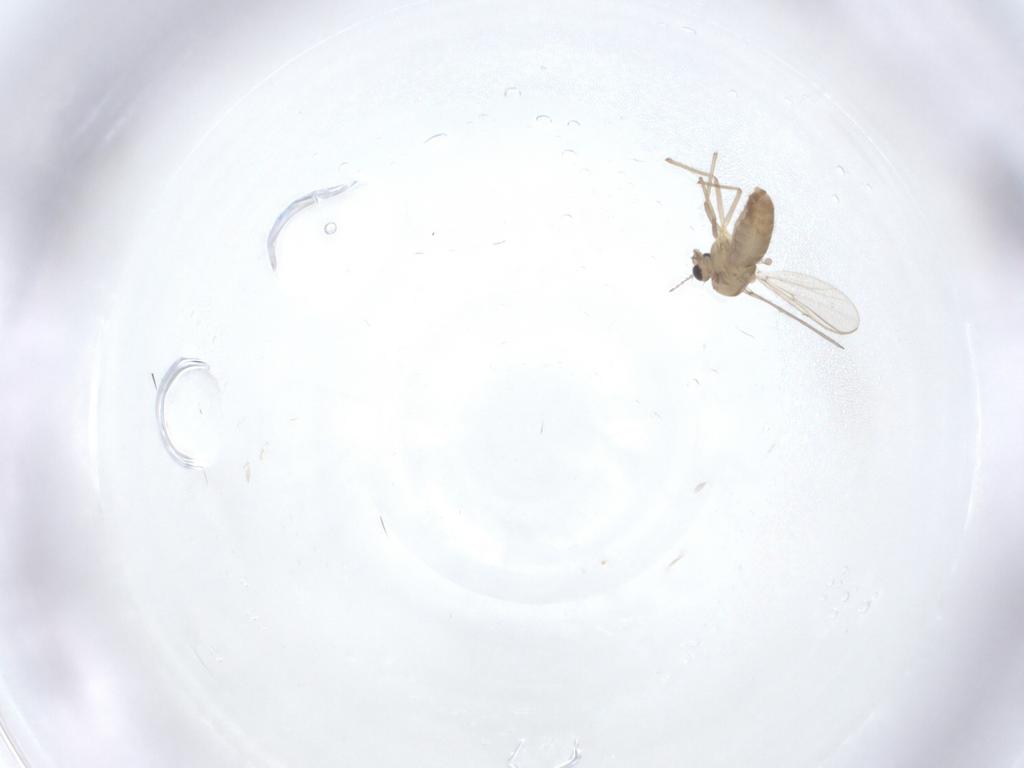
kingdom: Animalia
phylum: Arthropoda
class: Insecta
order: Diptera
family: Cecidomyiidae
